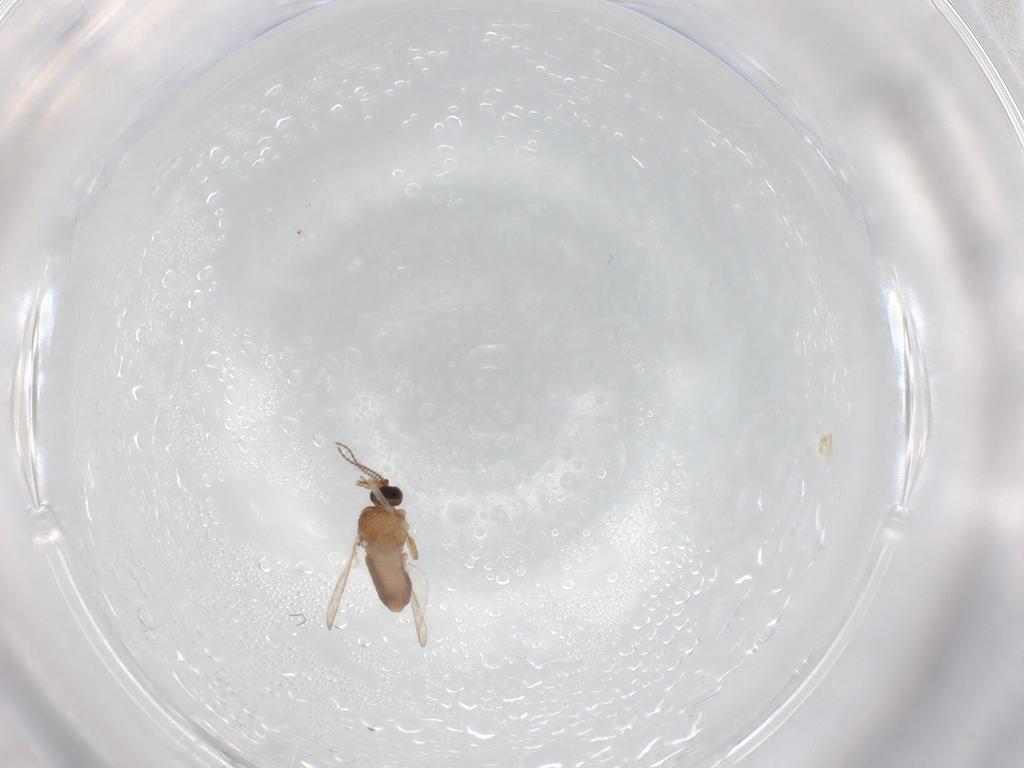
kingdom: Animalia
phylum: Arthropoda
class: Insecta
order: Diptera
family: Ceratopogonidae
